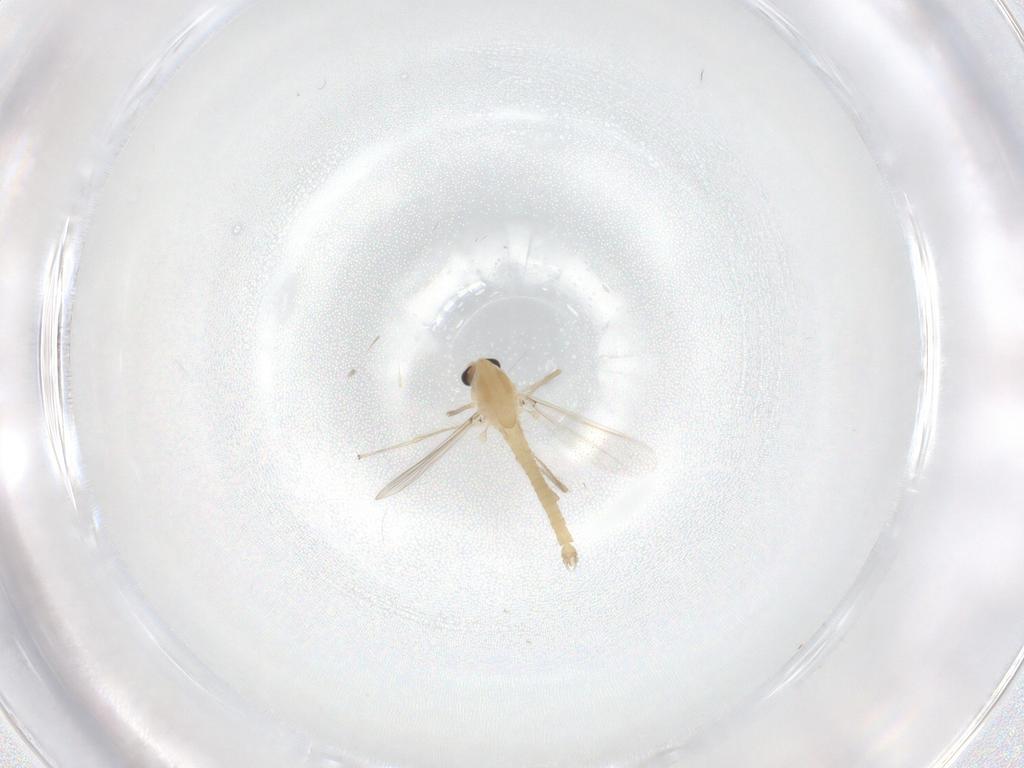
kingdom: Animalia
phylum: Arthropoda
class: Insecta
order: Diptera
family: Chironomidae
